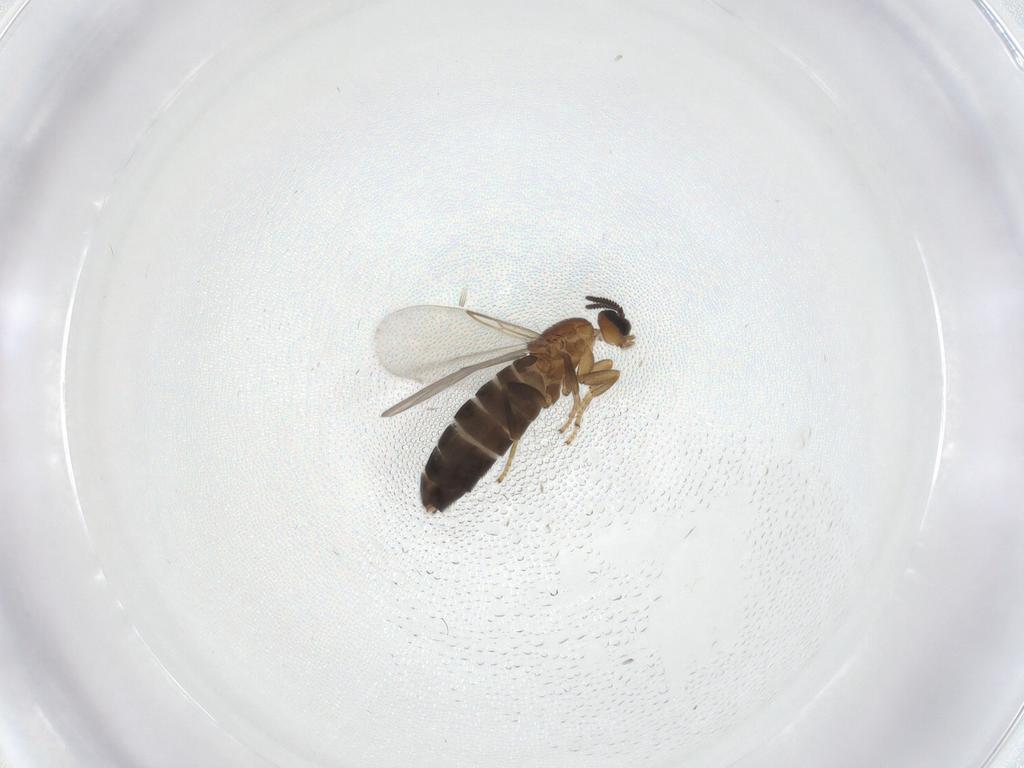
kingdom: Animalia
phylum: Arthropoda
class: Insecta
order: Diptera
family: Scatopsidae
